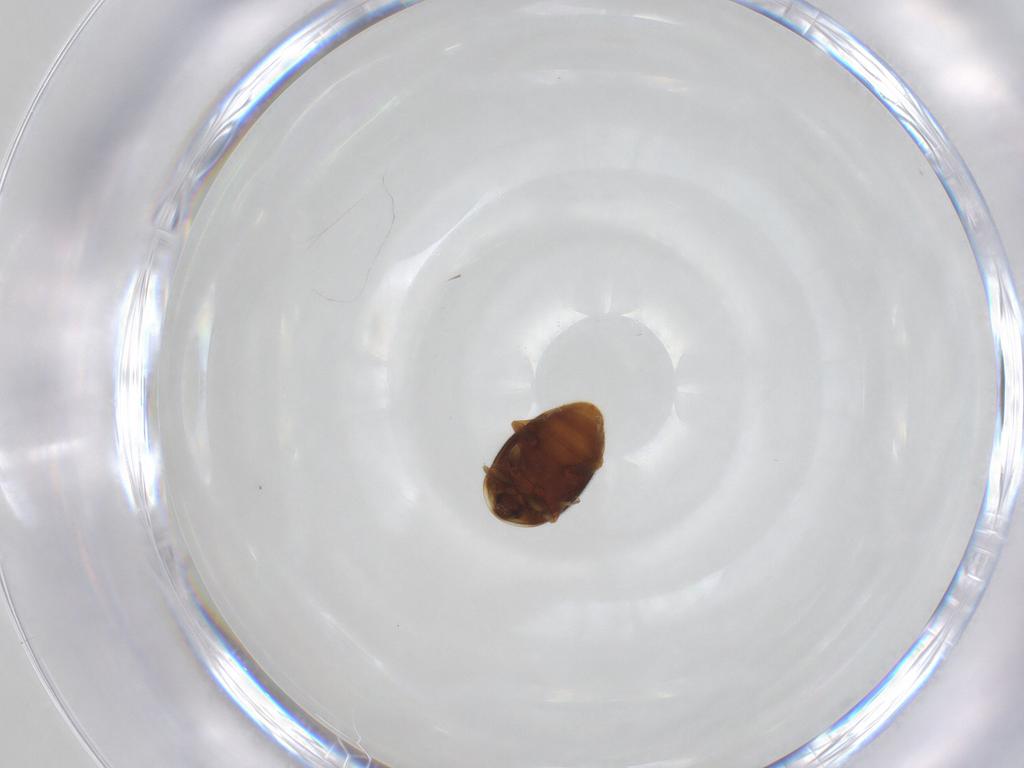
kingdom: Animalia
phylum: Arthropoda
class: Insecta
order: Coleoptera
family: Corylophidae
